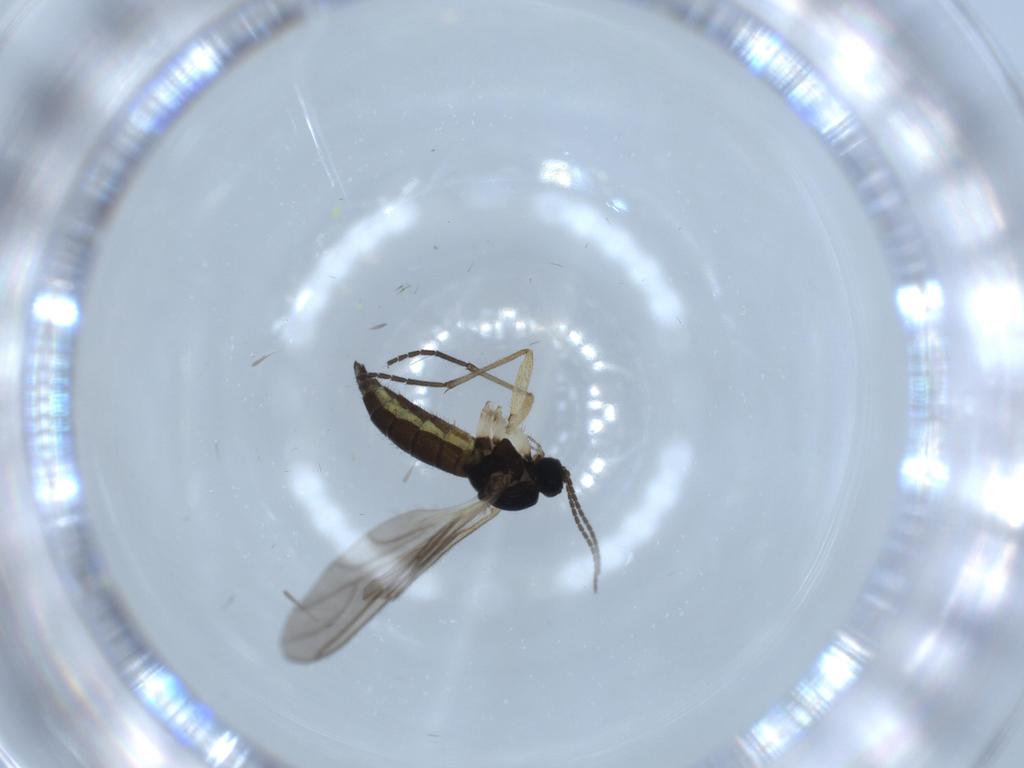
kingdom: Animalia
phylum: Arthropoda
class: Insecta
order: Diptera
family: Sciaridae
